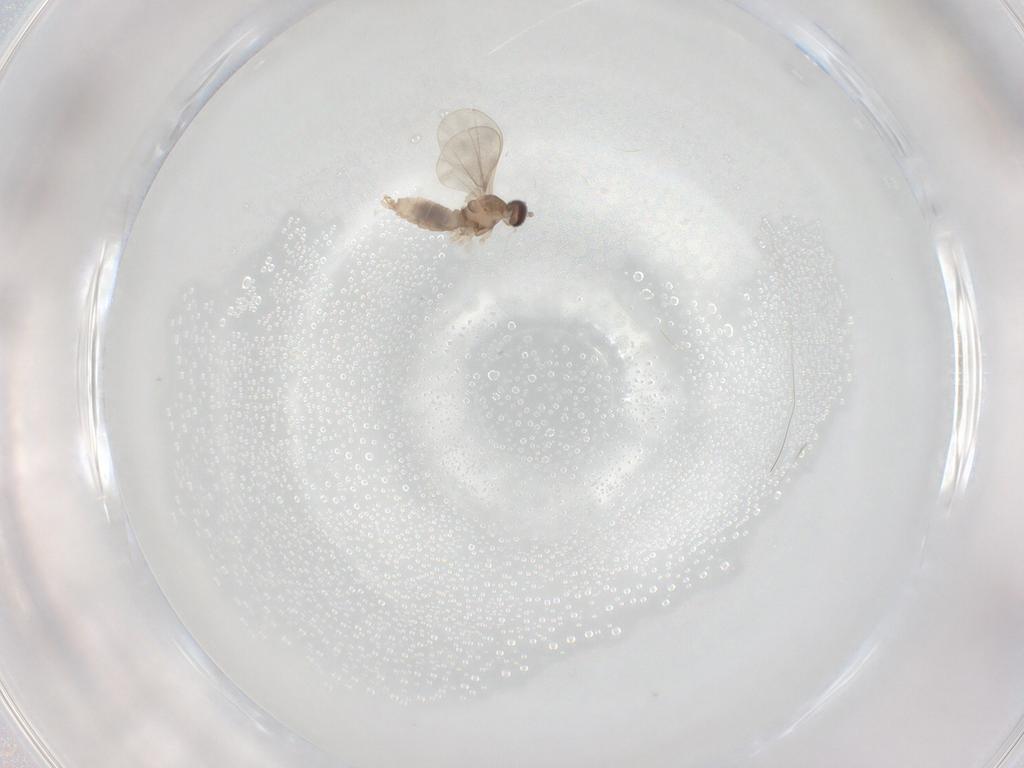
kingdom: Animalia
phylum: Arthropoda
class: Insecta
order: Diptera
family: Cecidomyiidae
